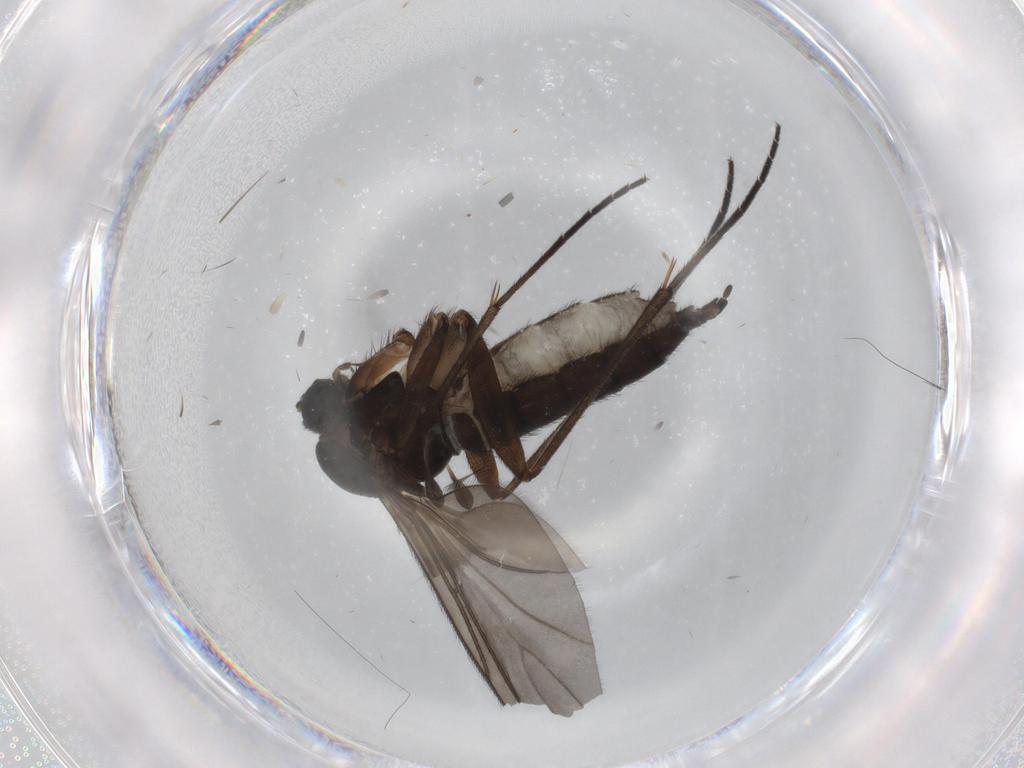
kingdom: Animalia
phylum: Arthropoda
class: Insecta
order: Diptera
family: Sciaridae
